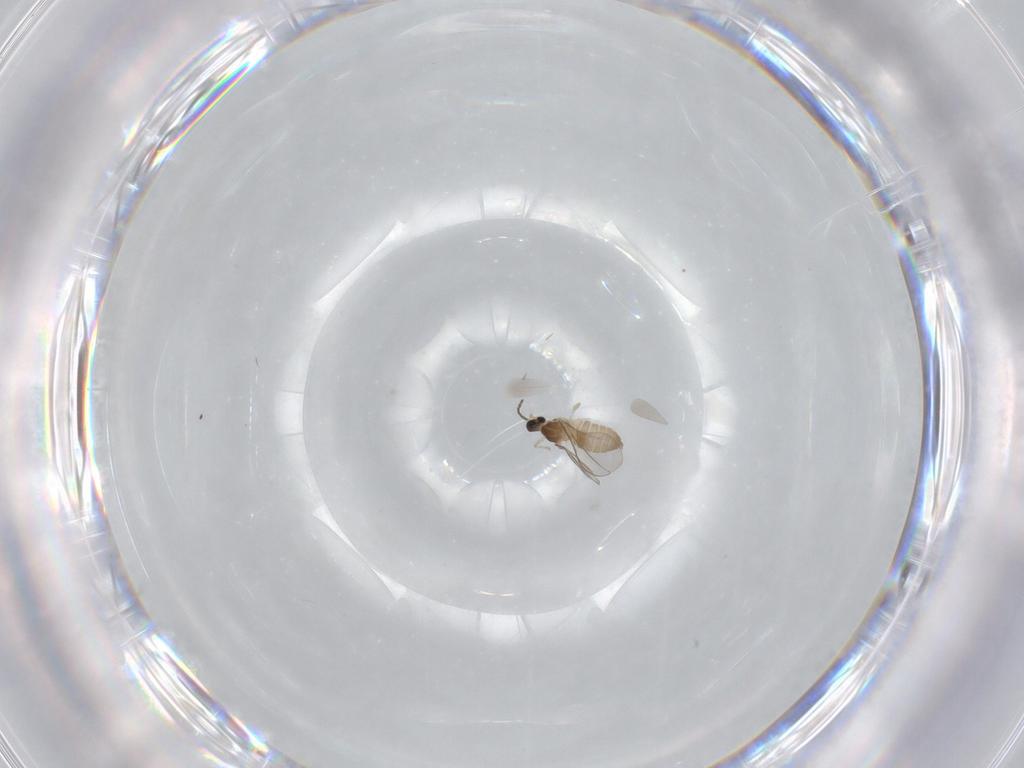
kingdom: Animalia
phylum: Arthropoda
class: Insecta
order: Diptera
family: Cecidomyiidae
